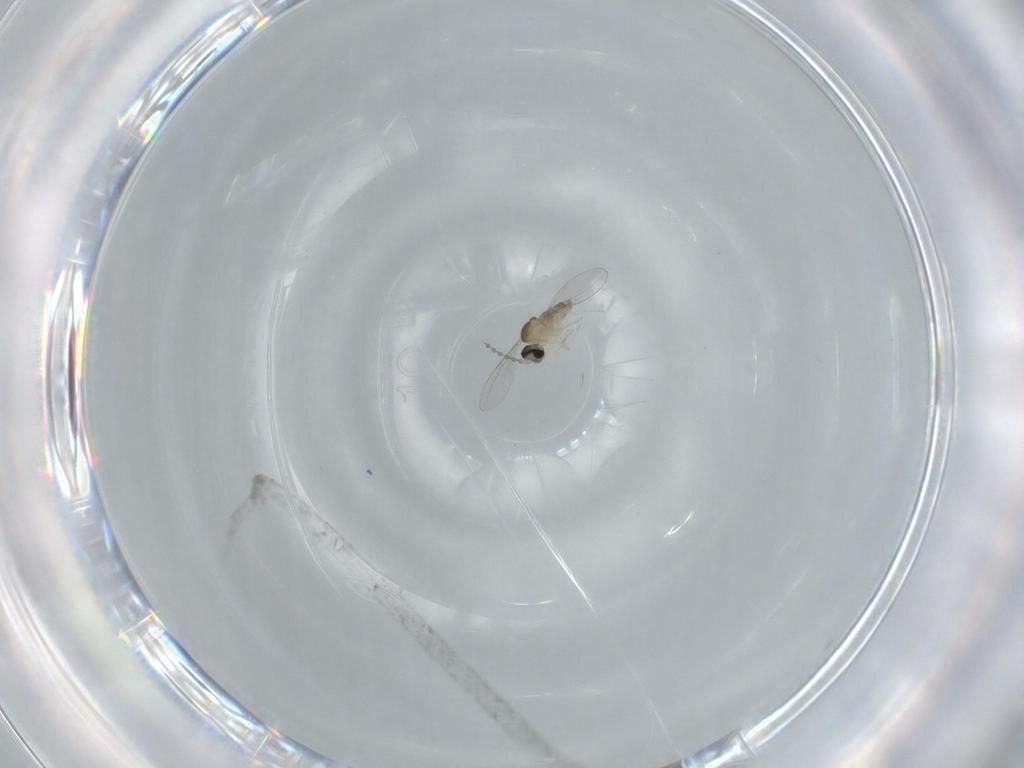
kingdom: Animalia
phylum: Arthropoda
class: Insecta
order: Diptera
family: Cecidomyiidae
